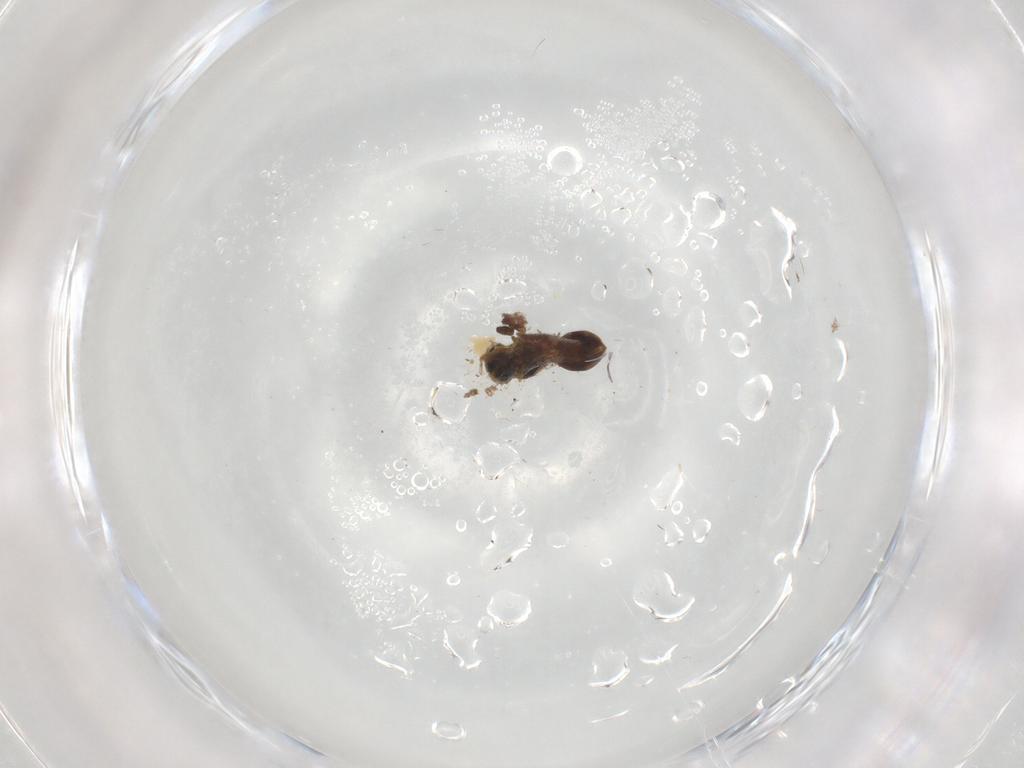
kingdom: Animalia
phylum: Arthropoda
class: Insecta
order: Hymenoptera
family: Scelionidae
